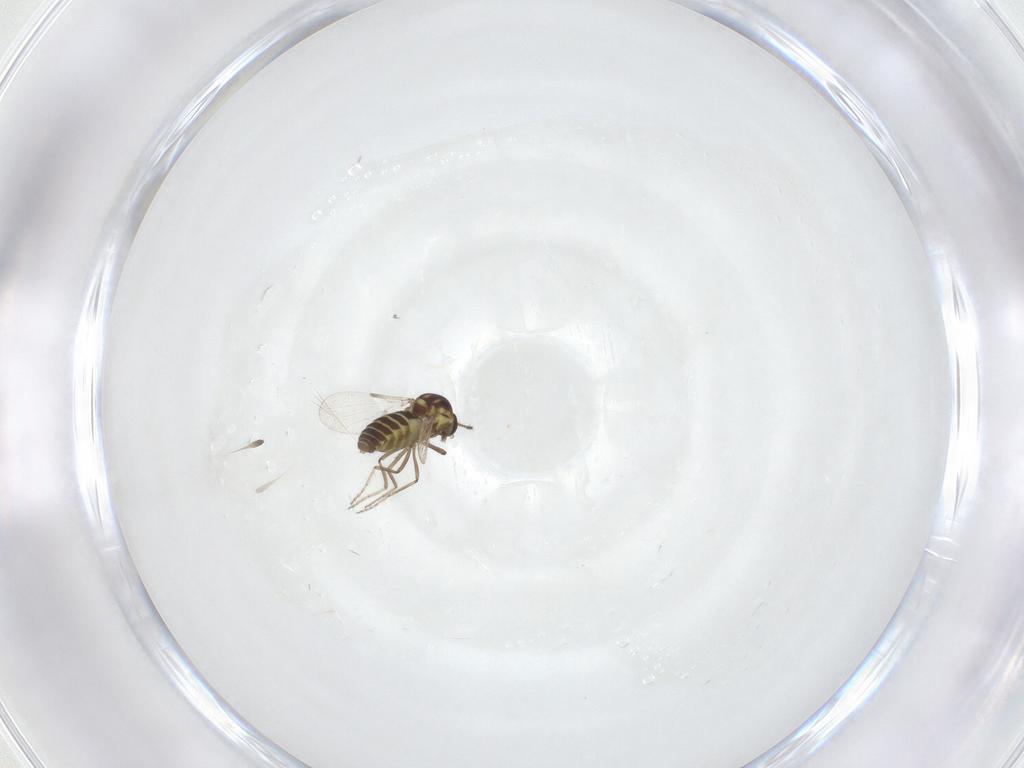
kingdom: Animalia
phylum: Arthropoda
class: Insecta
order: Diptera
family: Ceratopogonidae
